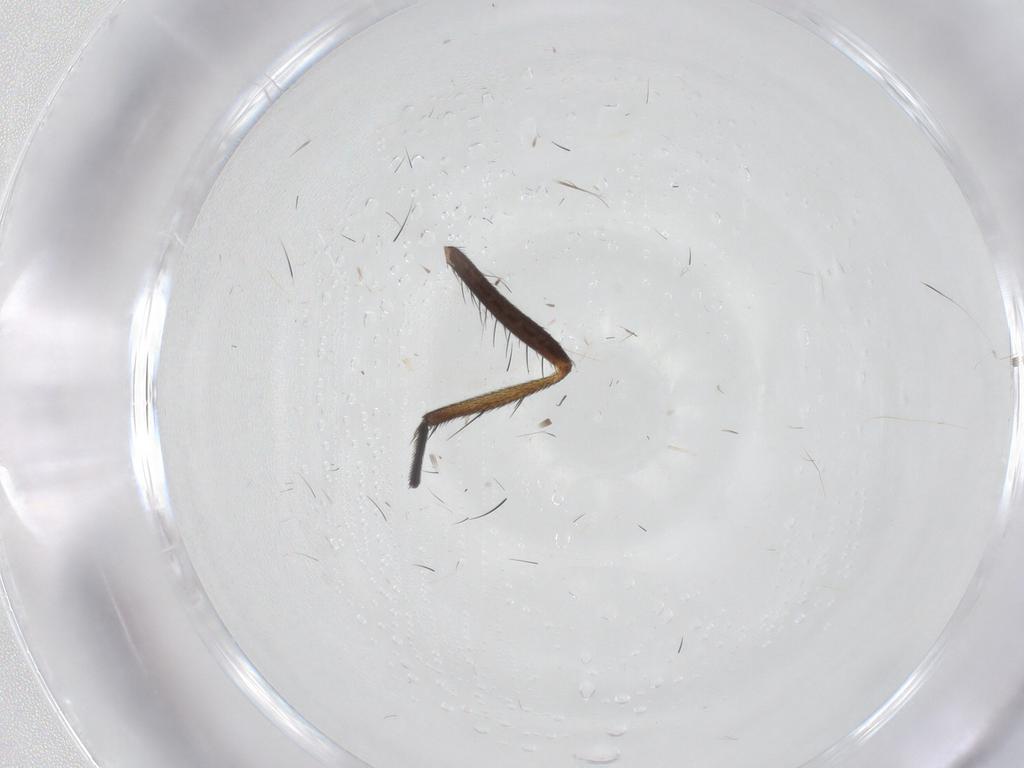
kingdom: Animalia
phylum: Arthropoda
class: Insecta
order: Diptera
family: Sciaridae
